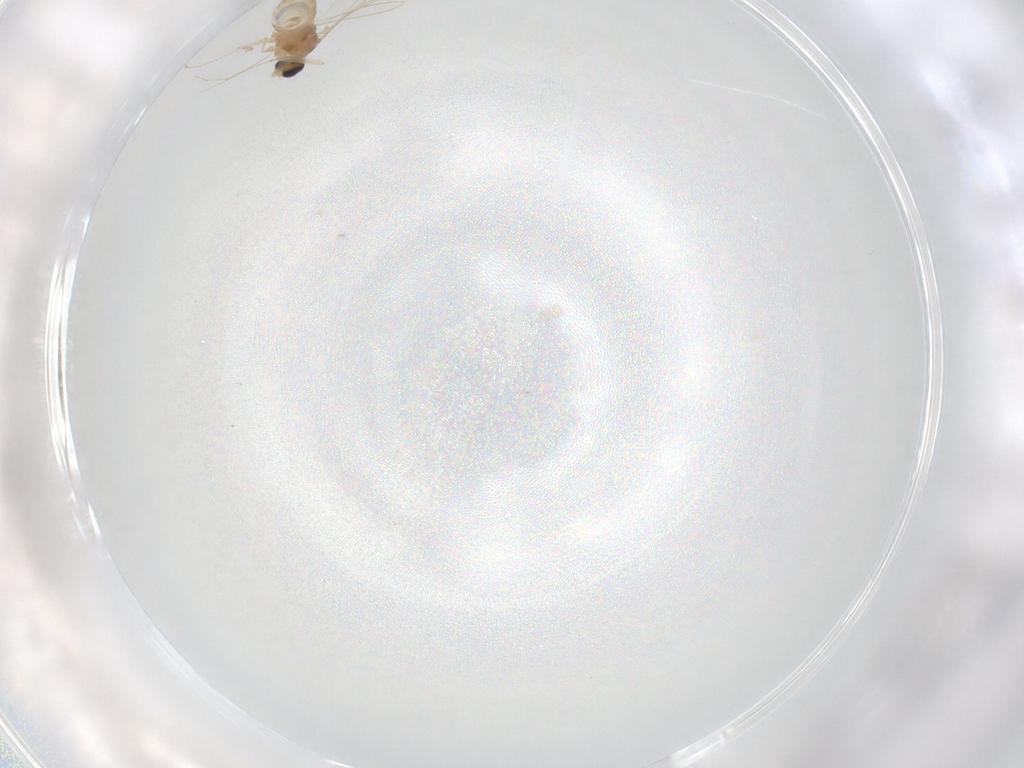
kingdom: Animalia
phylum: Arthropoda
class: Insecta
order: Diptera
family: Cecidomyiidae
